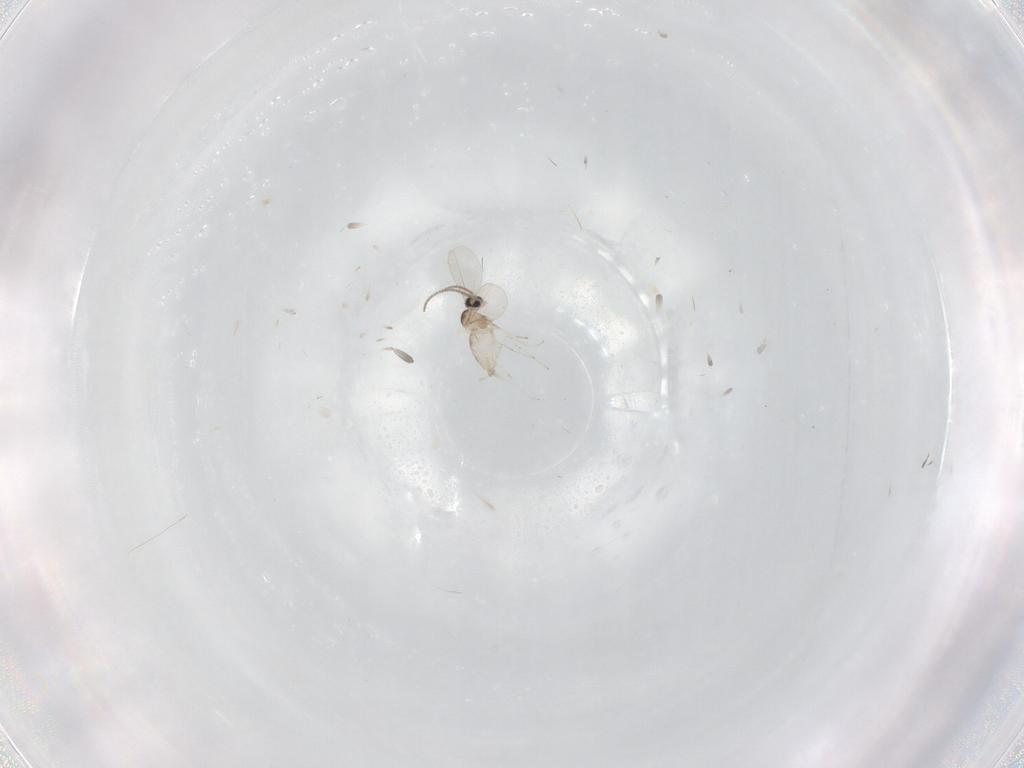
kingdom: Animalia
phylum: Arthropoda
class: Insecta
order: Diptera
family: Cecidomyiidae
